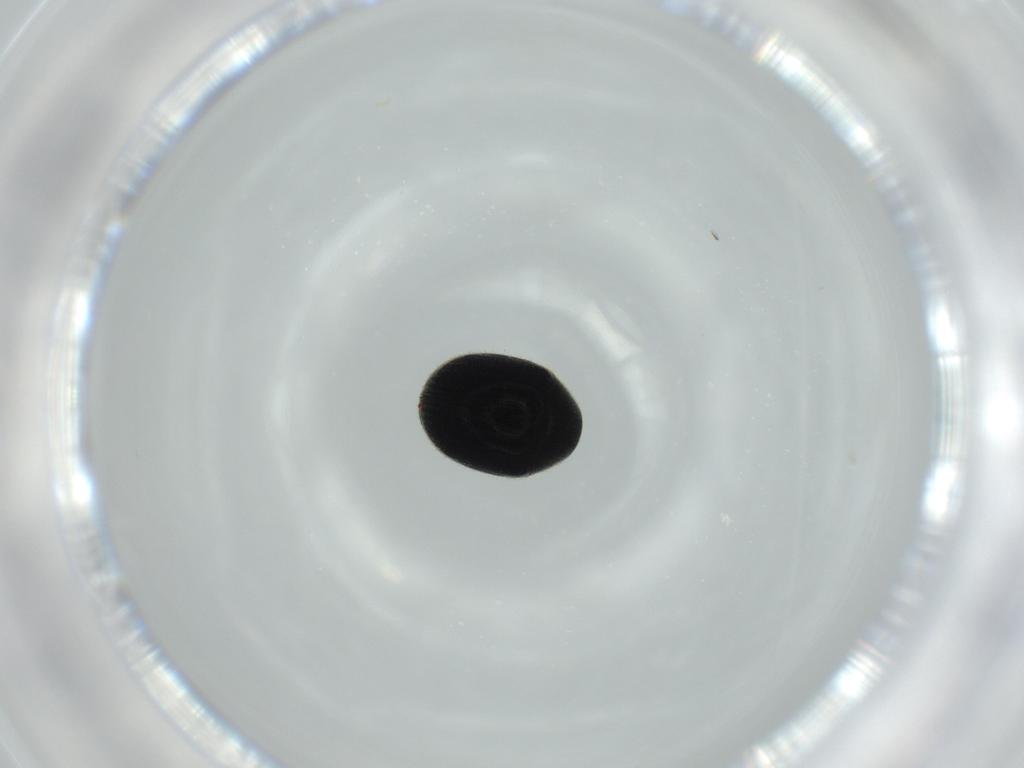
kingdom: Animalia
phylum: Arthropoda
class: Insecta
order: Coleoptera
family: Ptinidae
